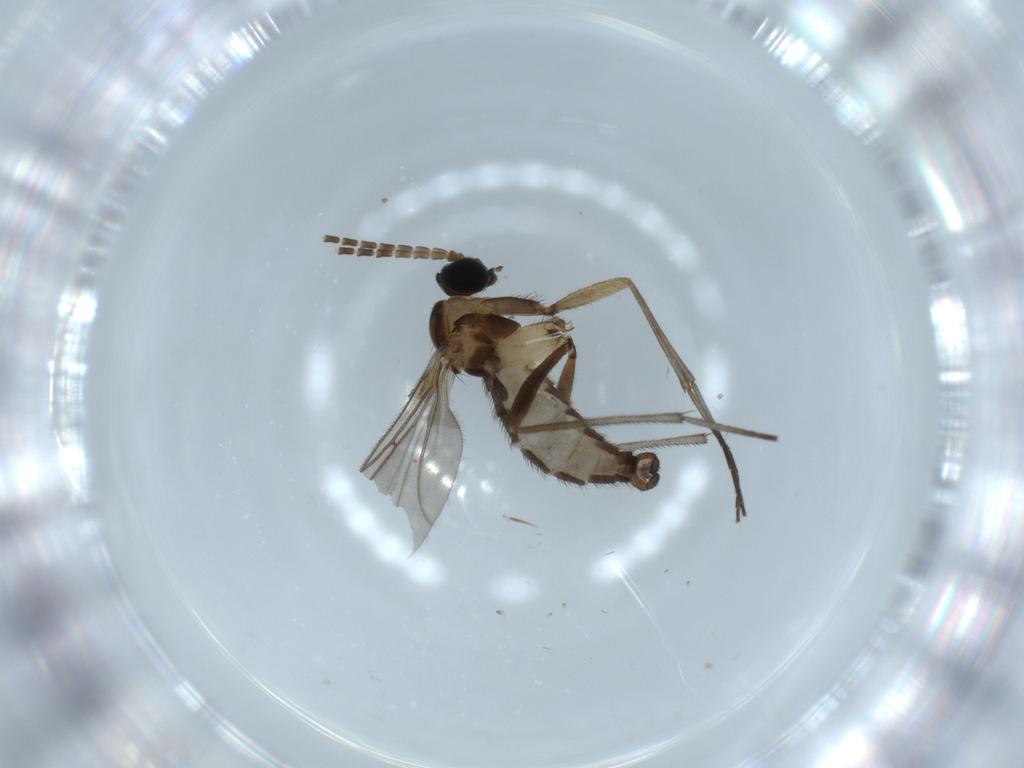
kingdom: Animalia
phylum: Arthropoda
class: Insecta
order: Diptera
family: Sciaridae
